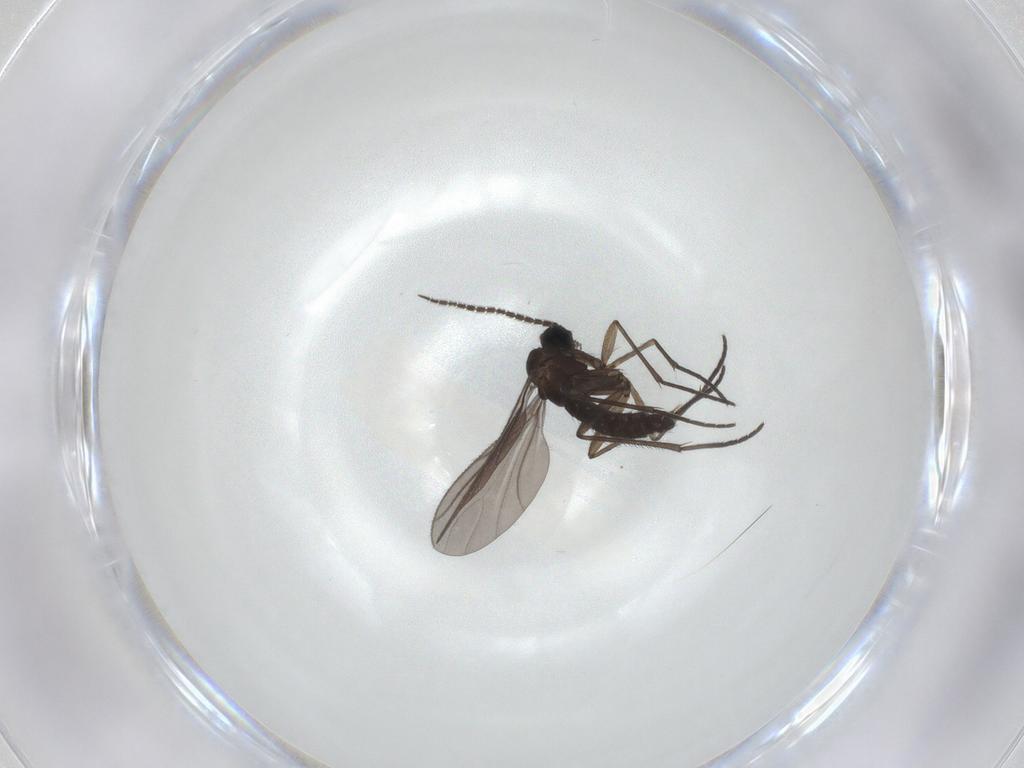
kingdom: Animalia
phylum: Arthropoda
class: Insecta
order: Diptera
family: Sciaridae
